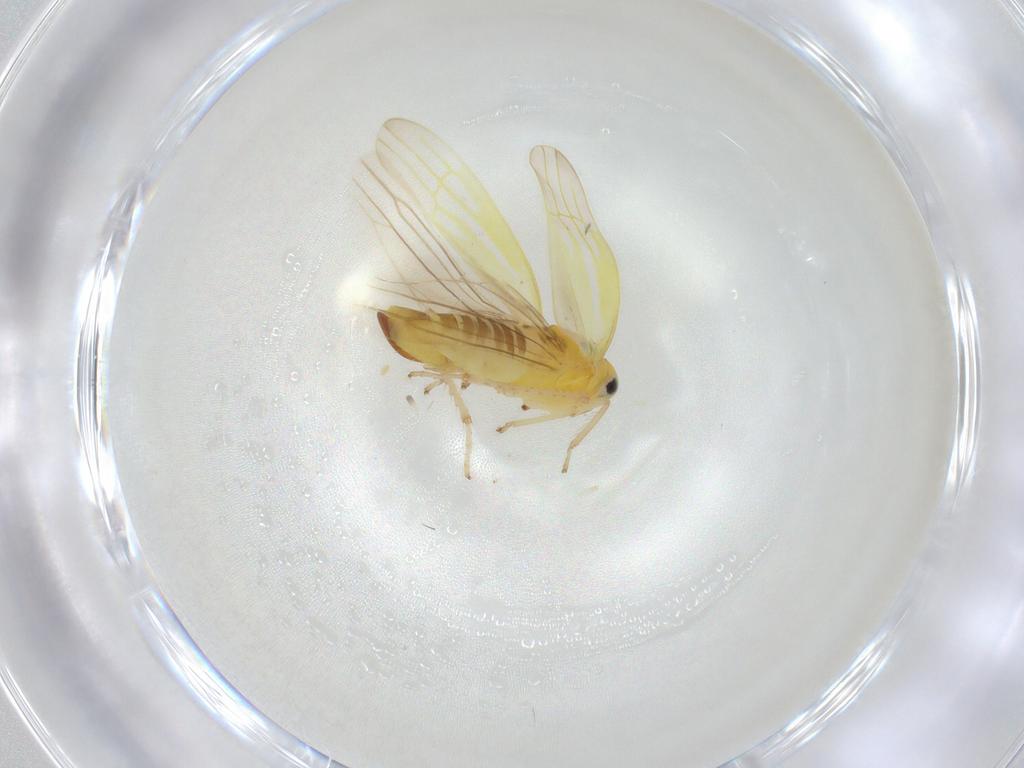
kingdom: Animalia
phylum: Arthropoda
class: Insecta
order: Hemiptera
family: Cicadellidae
